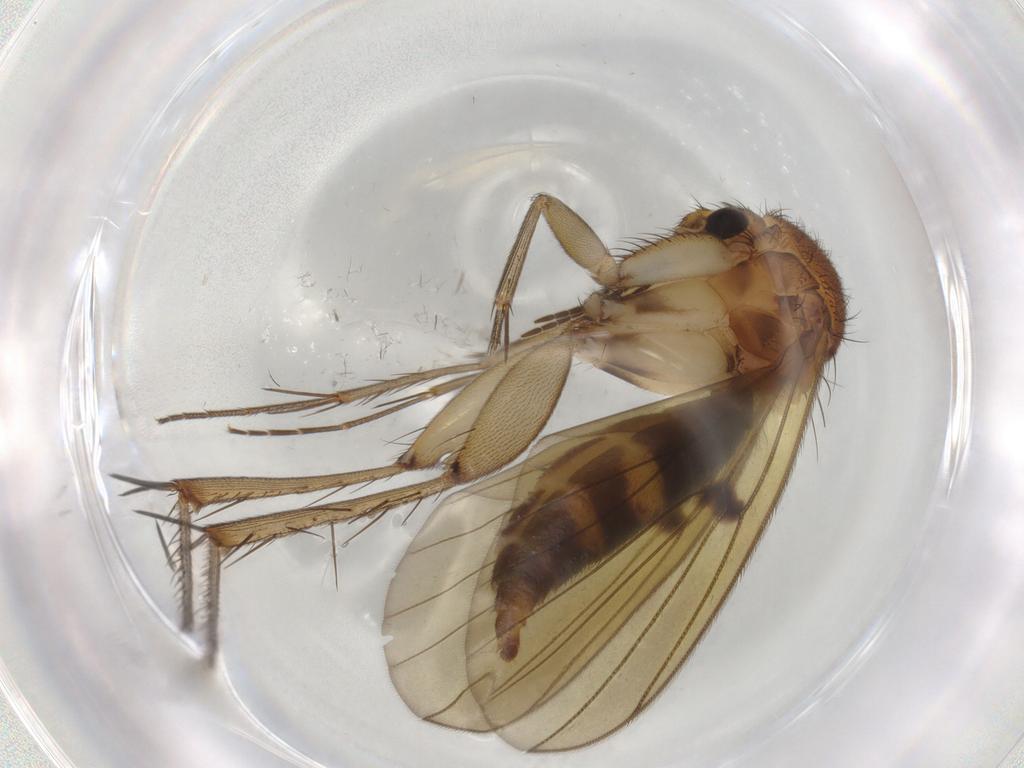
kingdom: Animalia
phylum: Arthropoda
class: Insecta
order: Diptera
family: Mycetophilidae
